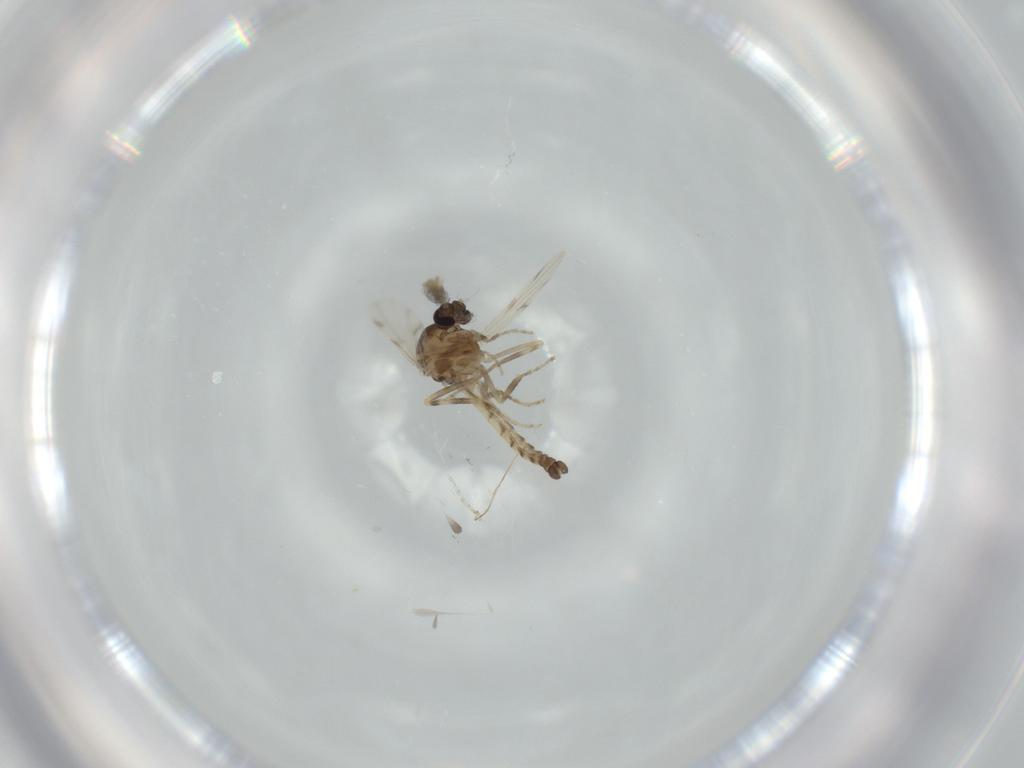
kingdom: Animalia
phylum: Arthropoda
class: Insecta
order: Diptera
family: Ceratopogonidae
